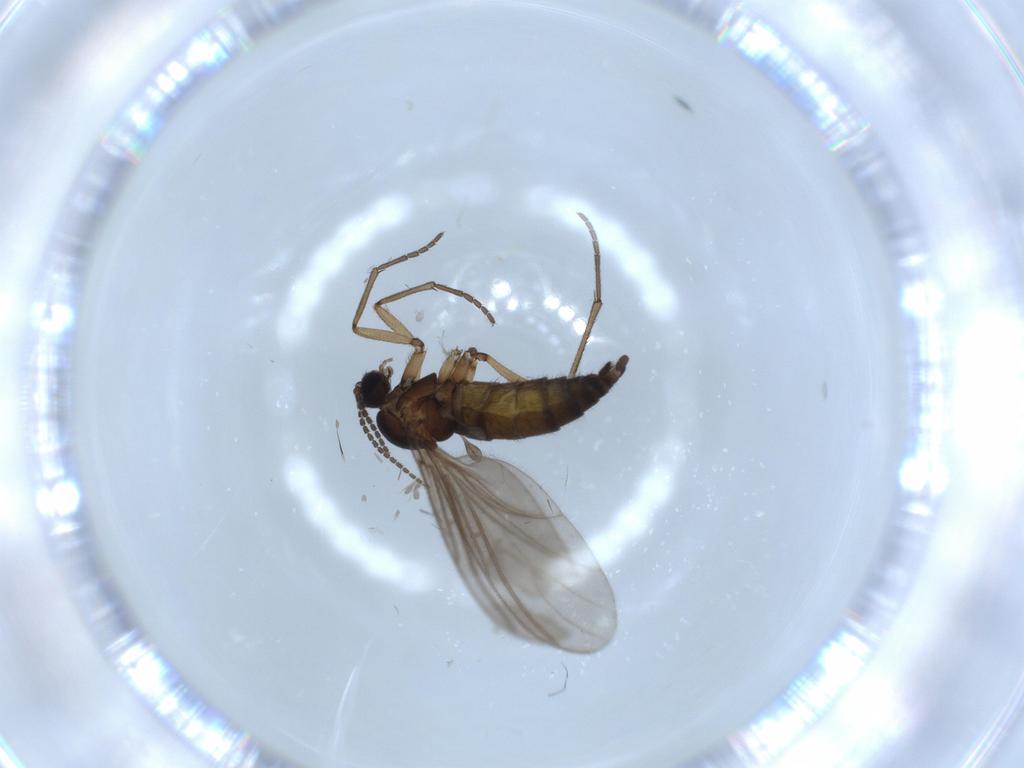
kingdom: Animalia
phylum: Arthropoda
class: Insecta
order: Diptera
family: Sciaridae
